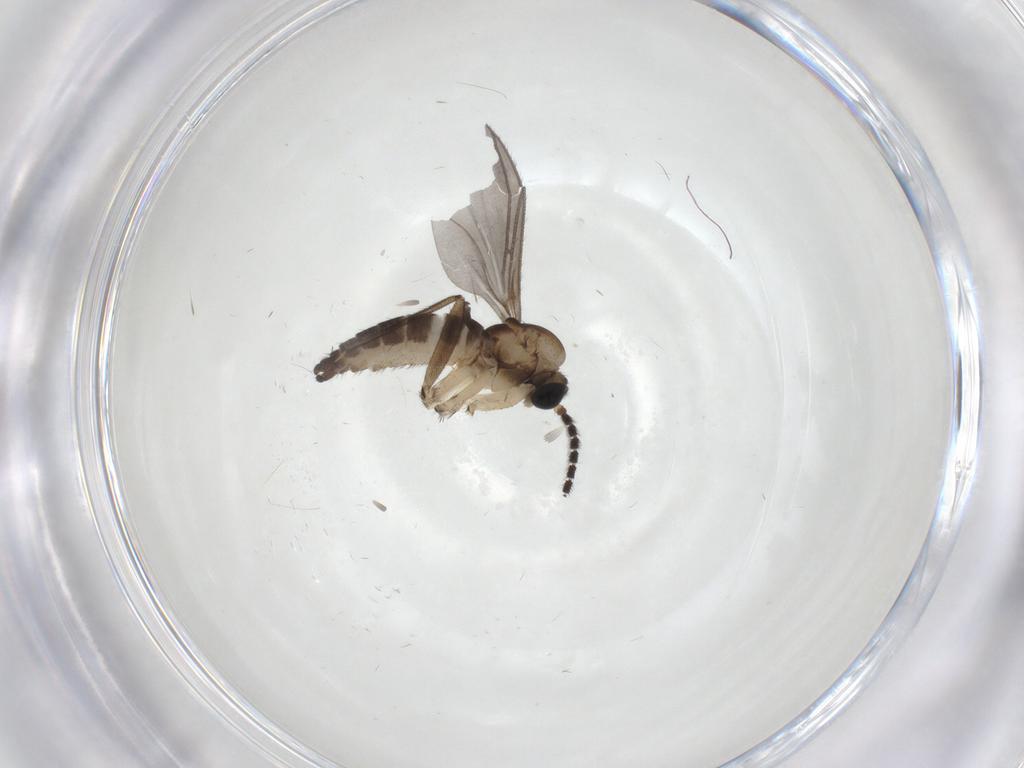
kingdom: Animalia
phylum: Arthropoda
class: Insecta
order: Diptera
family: Sciaridae
